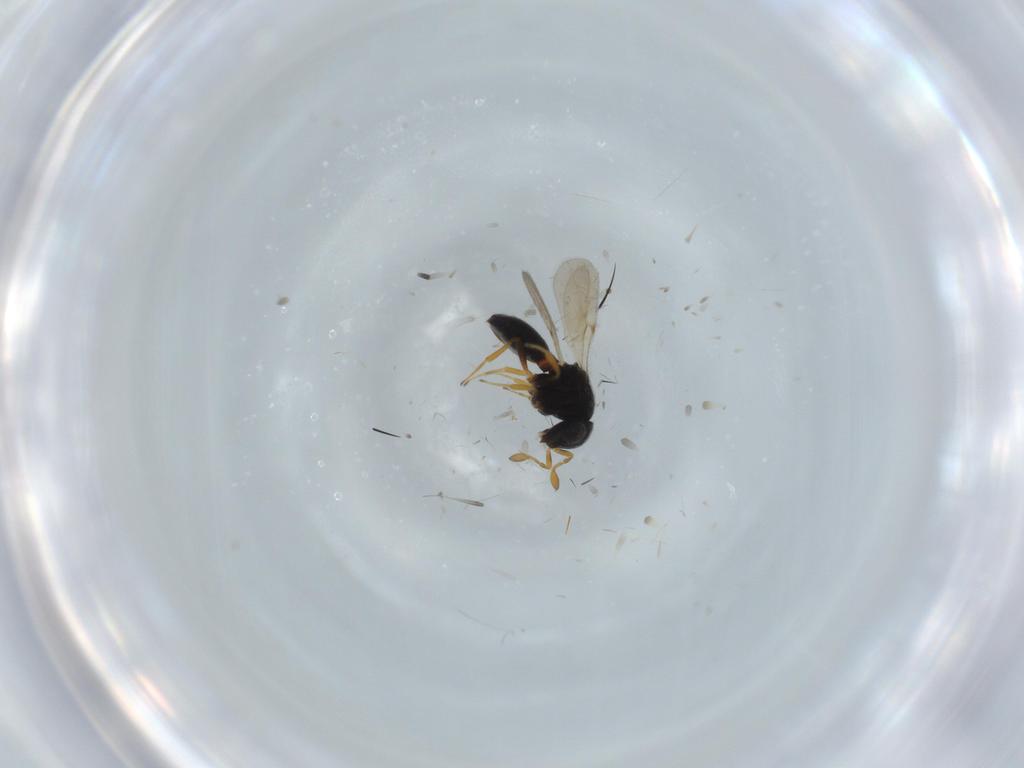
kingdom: Animalia
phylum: Arthropoda
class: Insecta
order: Hymenoptera
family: Scelionidae
